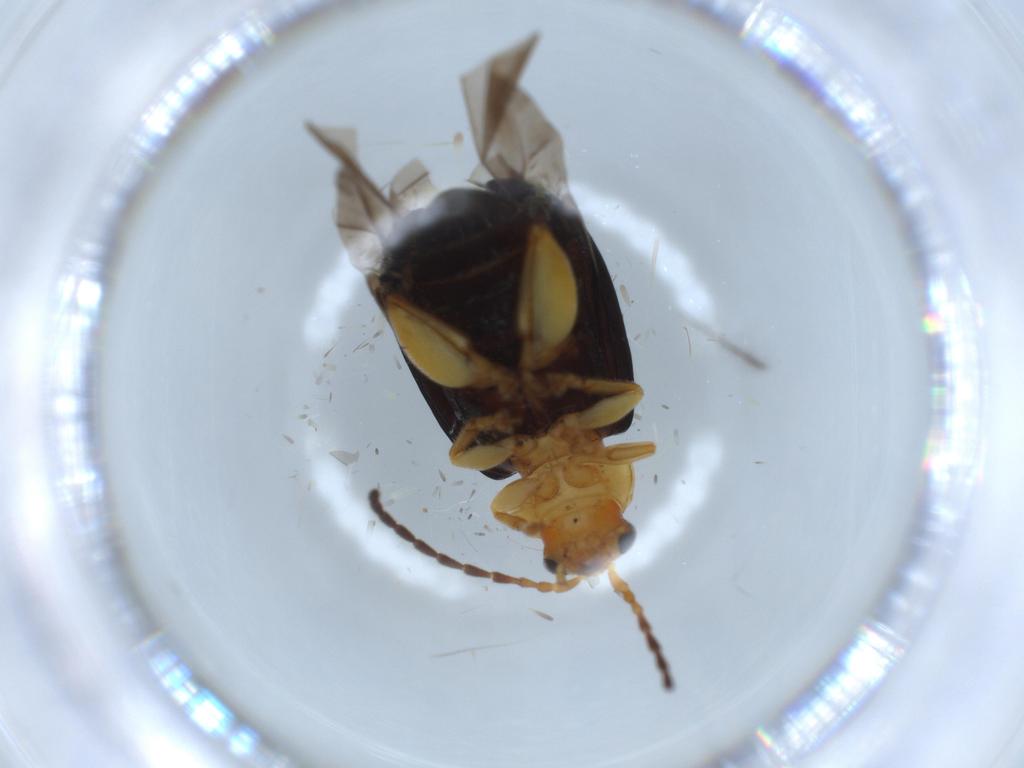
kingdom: Animalia
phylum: Arthropoda
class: Insecta
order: Coleoptera
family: Chrysomelidae
